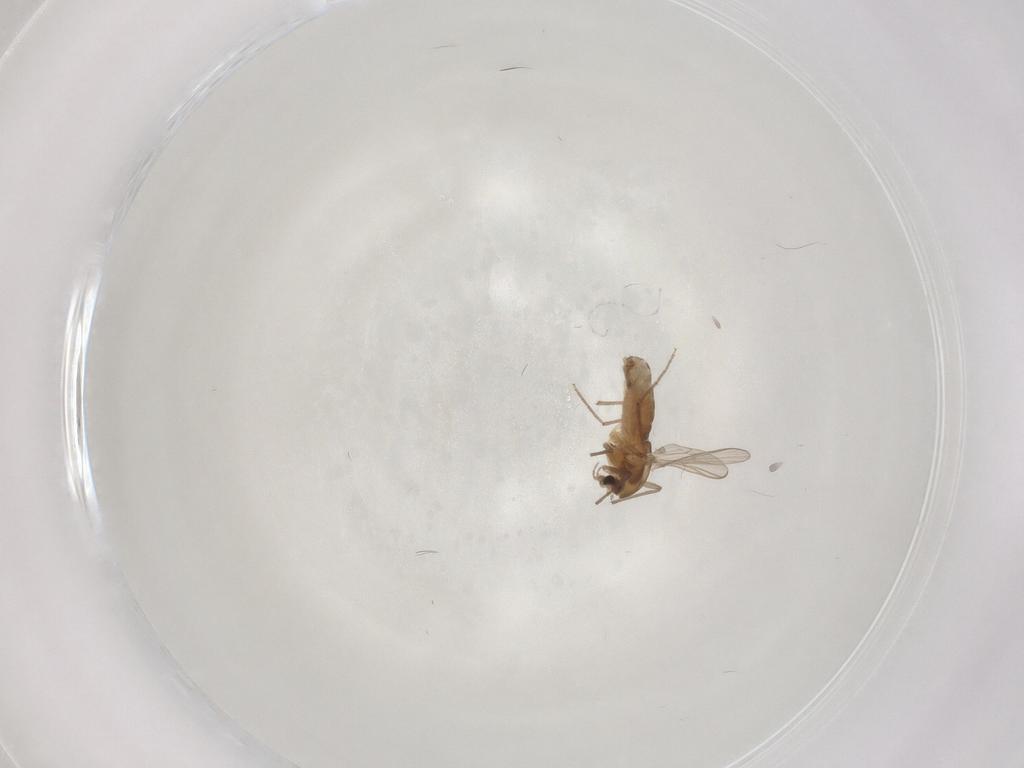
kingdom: Animalia
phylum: Arthropoda
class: Insecta
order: Diptera
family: Chironomidae
